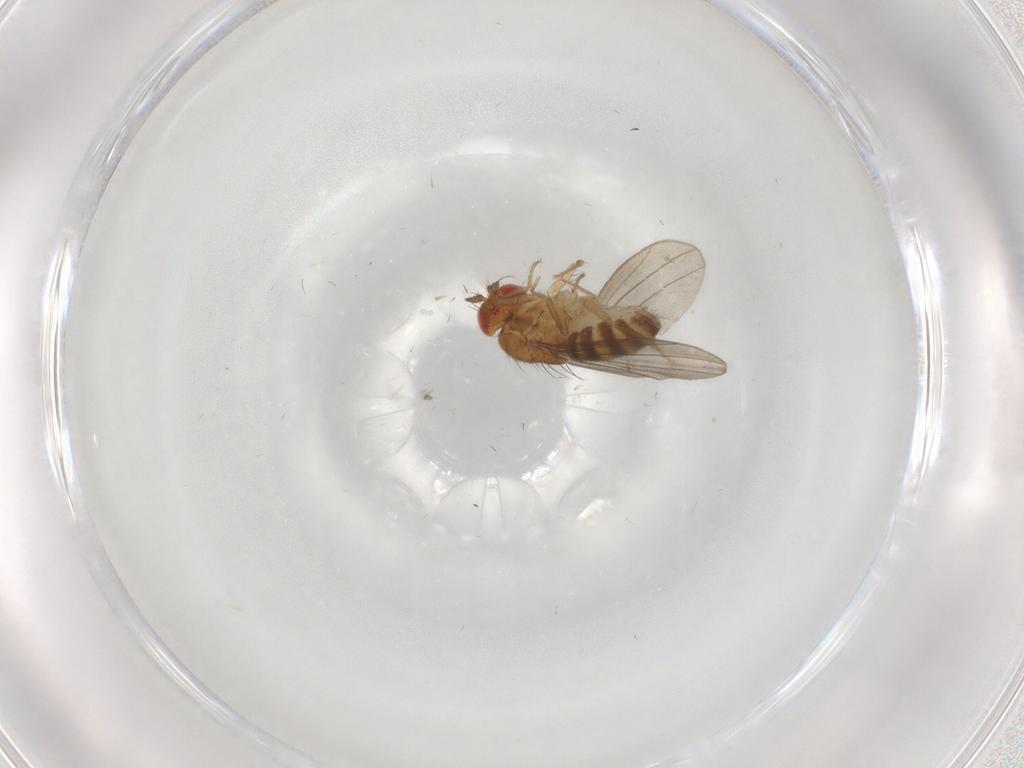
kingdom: Animalia
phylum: Arthropoda
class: Insecta
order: Diptera
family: Drosophilidae
